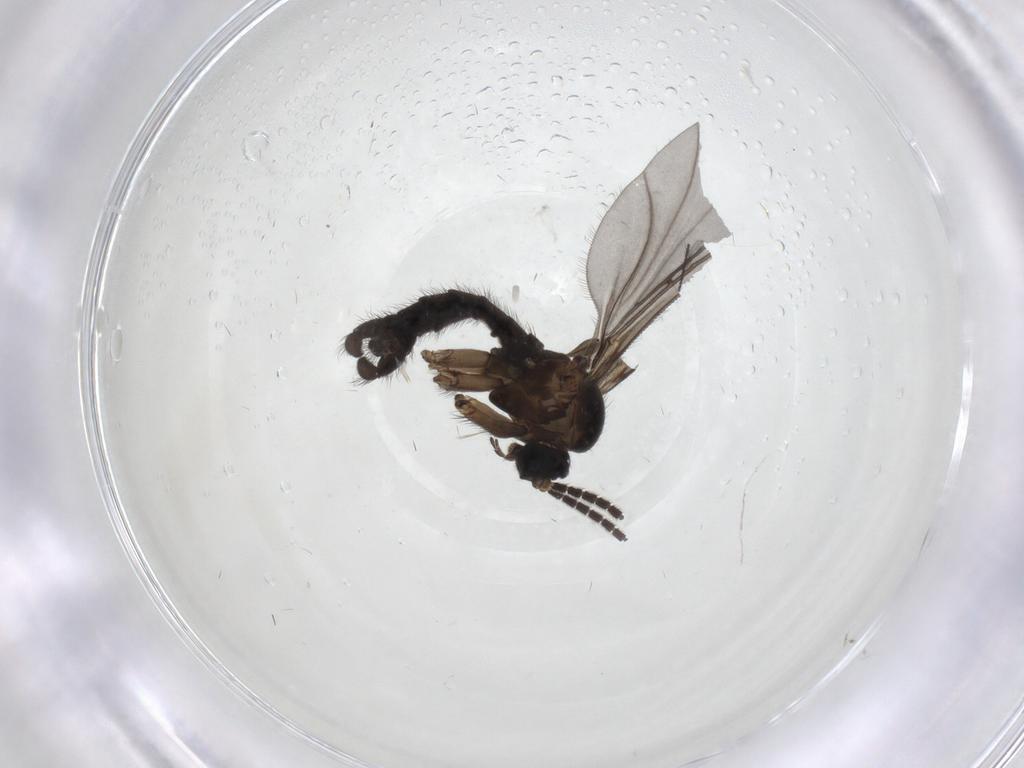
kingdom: Animalia
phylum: Arthropoda
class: Insecta
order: Diptera
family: Sciaridae
